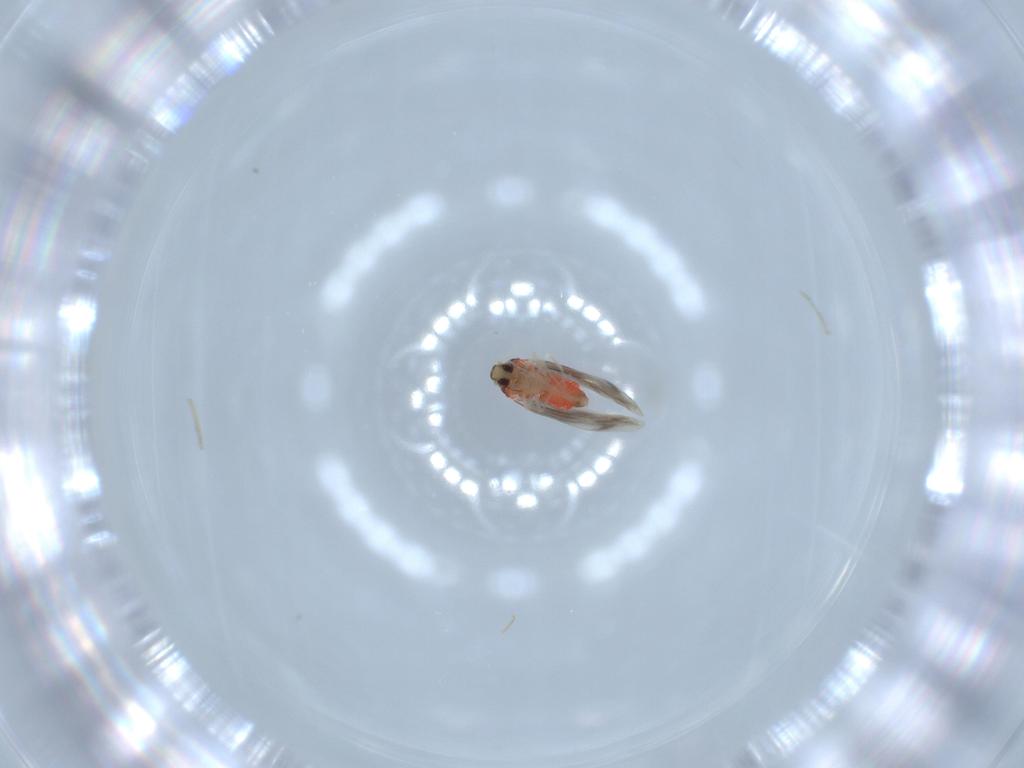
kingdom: Animalia
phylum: Arthropoda
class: Insecta
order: Hemiptera
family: Aleyrodidae
